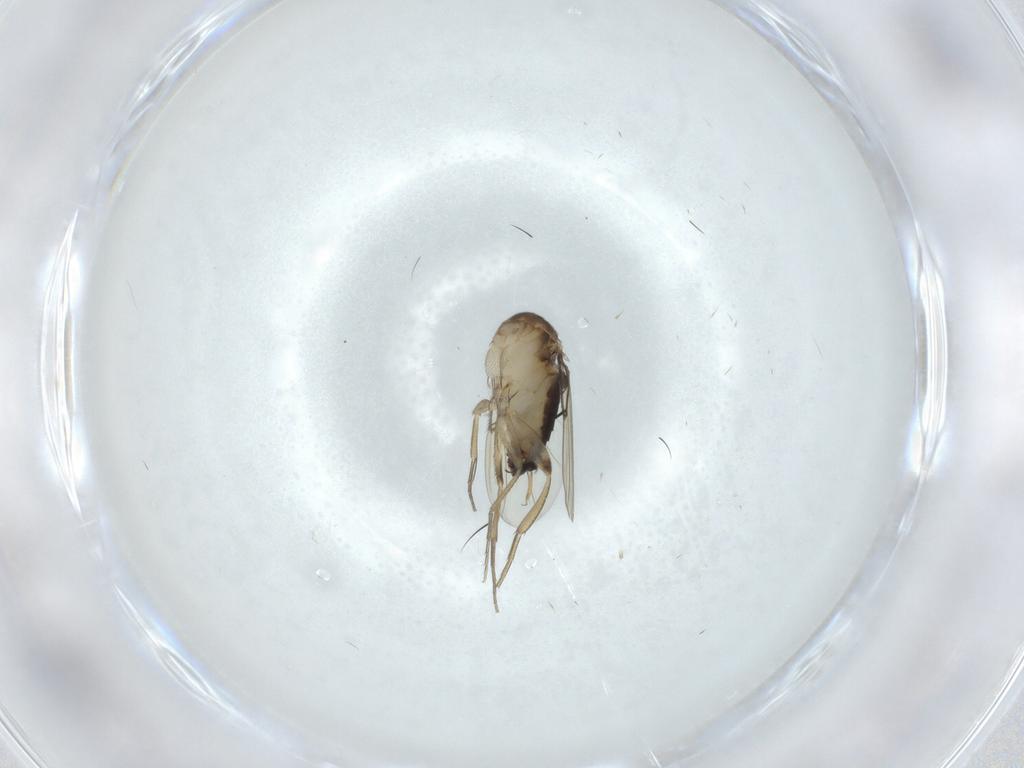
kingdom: Animalia
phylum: Arthropoda
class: Insecta
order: Diptera
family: Phoridae
